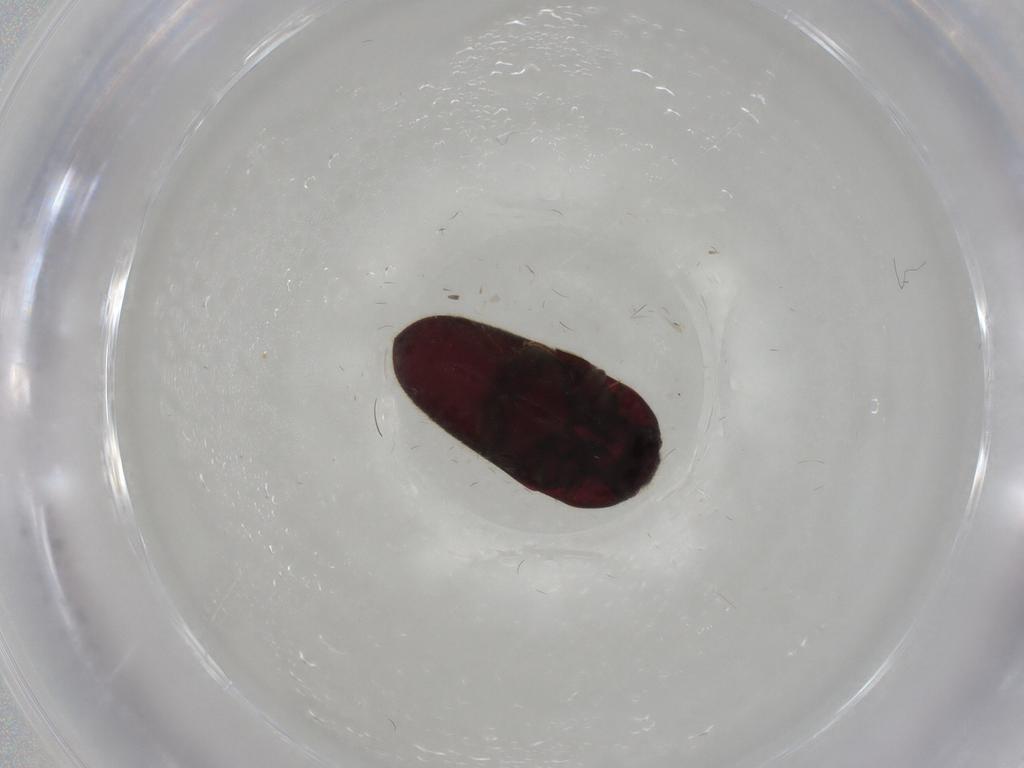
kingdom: Animalia
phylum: Arthropoda
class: Insecta
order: Coleoptera
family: Throscidae
